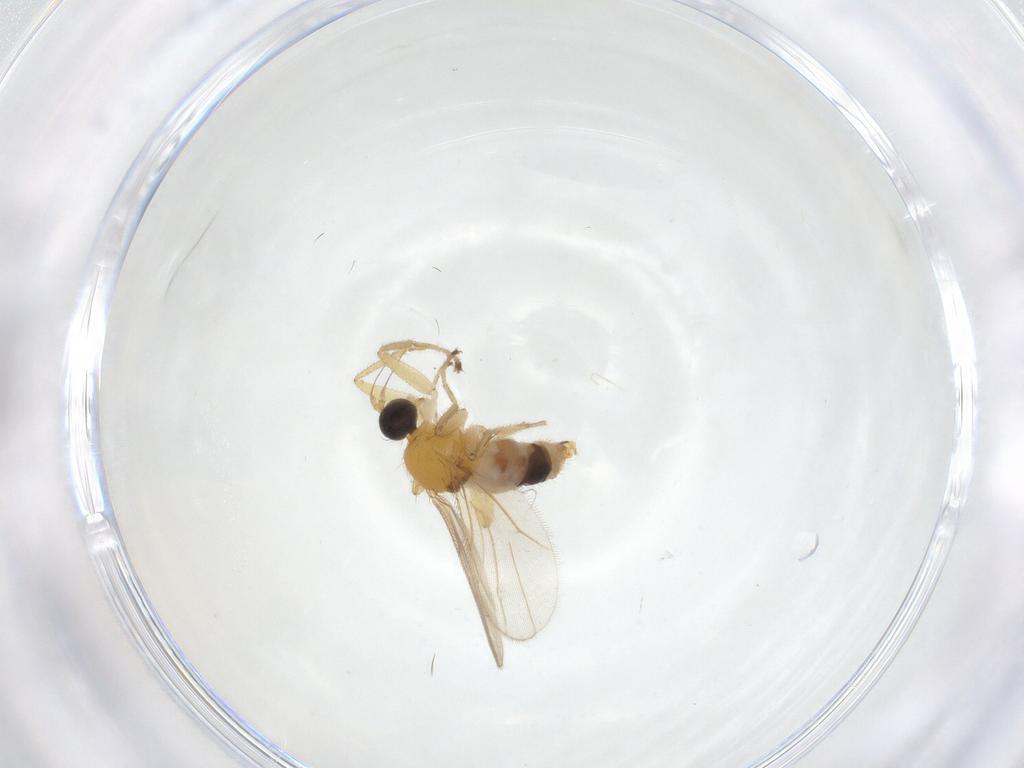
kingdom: Animalia
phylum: Arthropoda
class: Insecta
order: Diptera
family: Hybotidae
